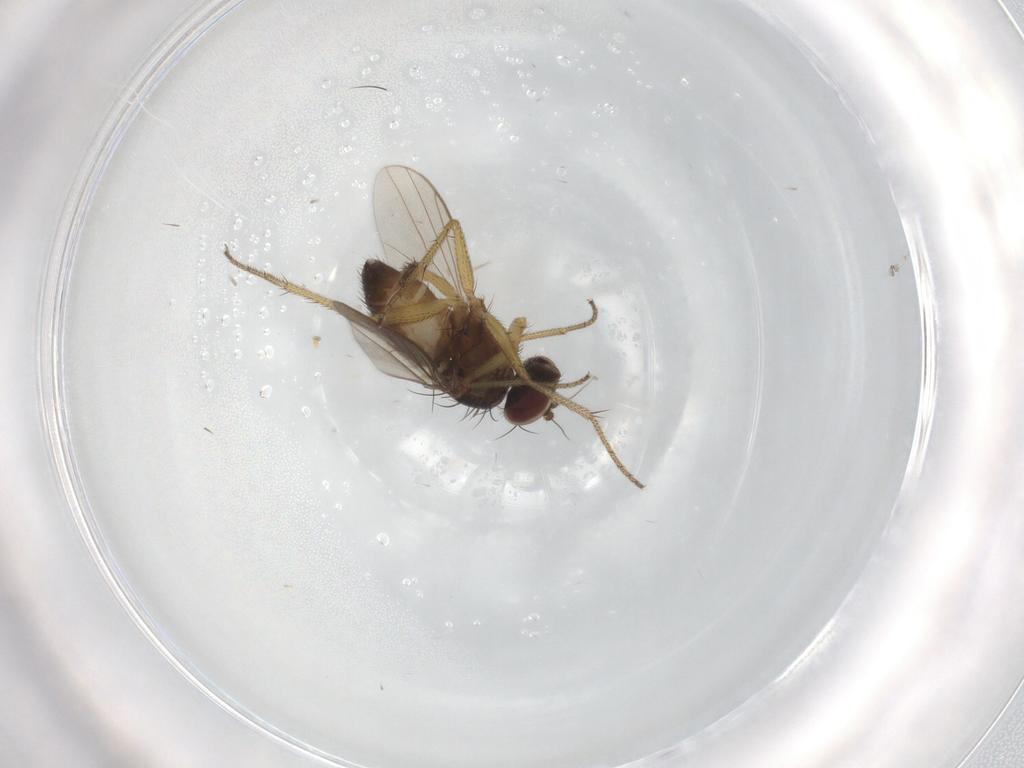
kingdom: Animalia
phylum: Arthropoda
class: Insecta
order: Diptera
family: Dolichopodidae
